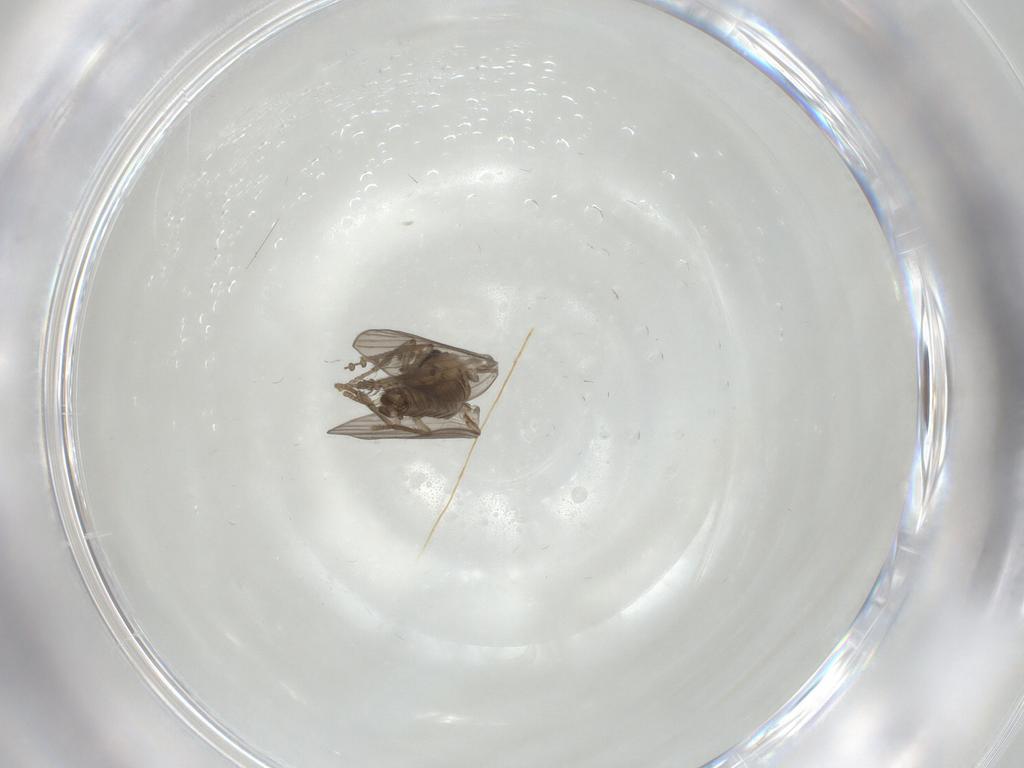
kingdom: Animalia
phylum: Arthropoda
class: Insecta
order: Diptera
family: Psychodidae
